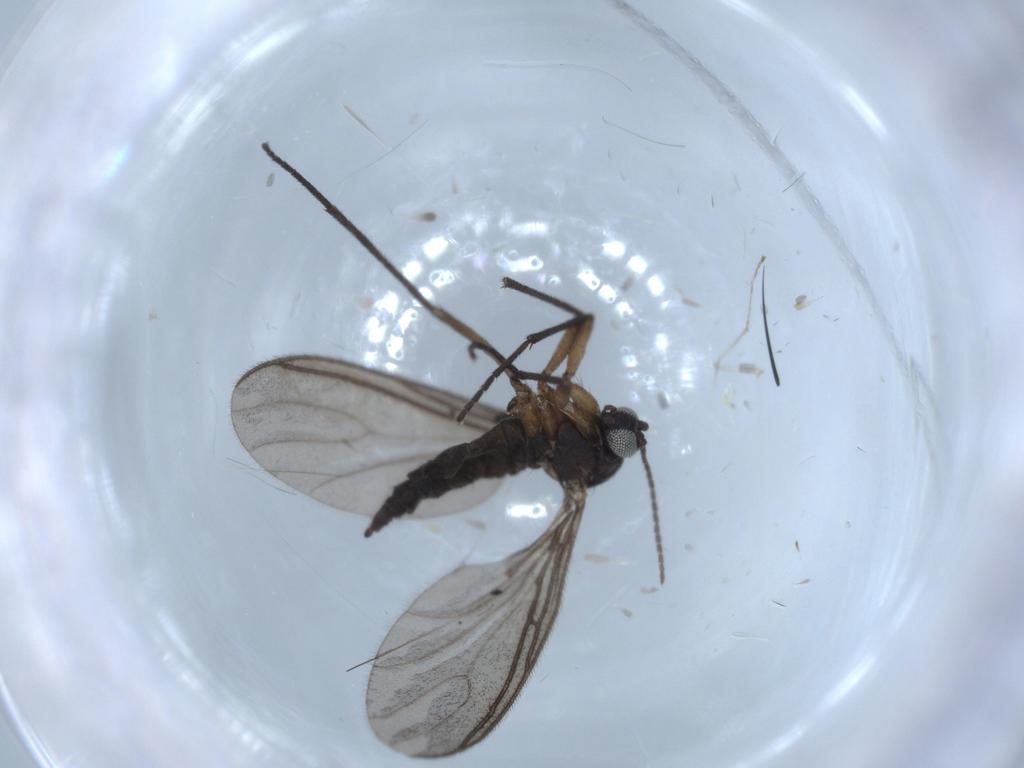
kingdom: Animalia
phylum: Arthropoda
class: Insecta
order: Diptera
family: Sciaridae
